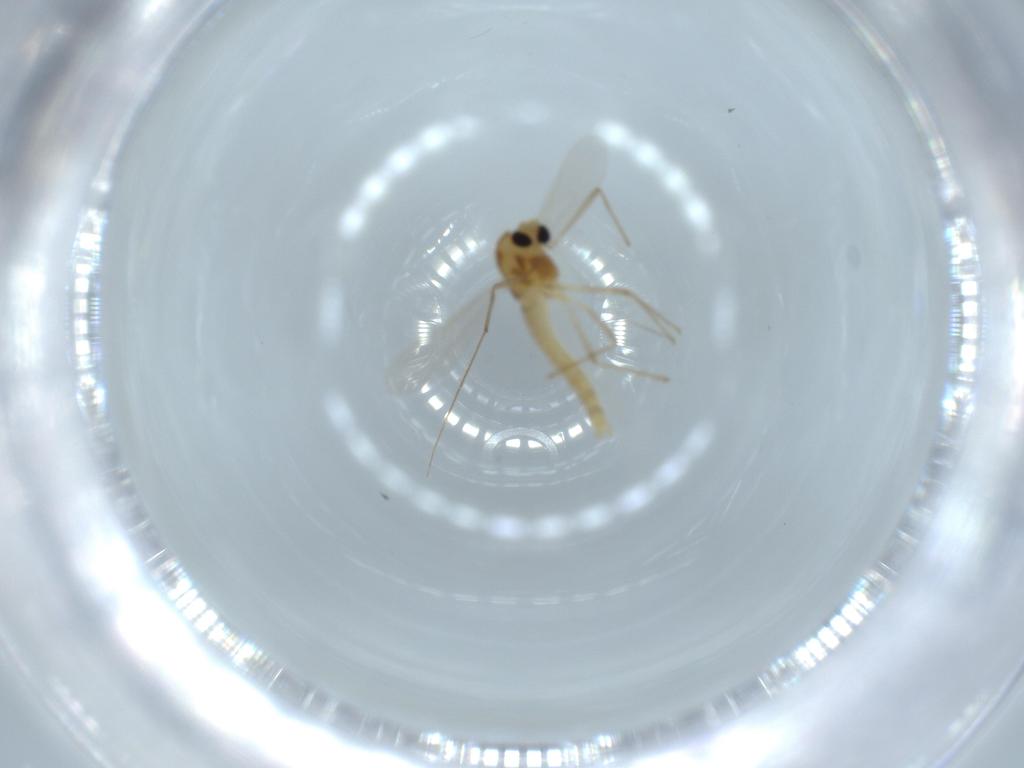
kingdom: Animalia
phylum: Arthropoda
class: Insecta
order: Diptera
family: Chironomidae
